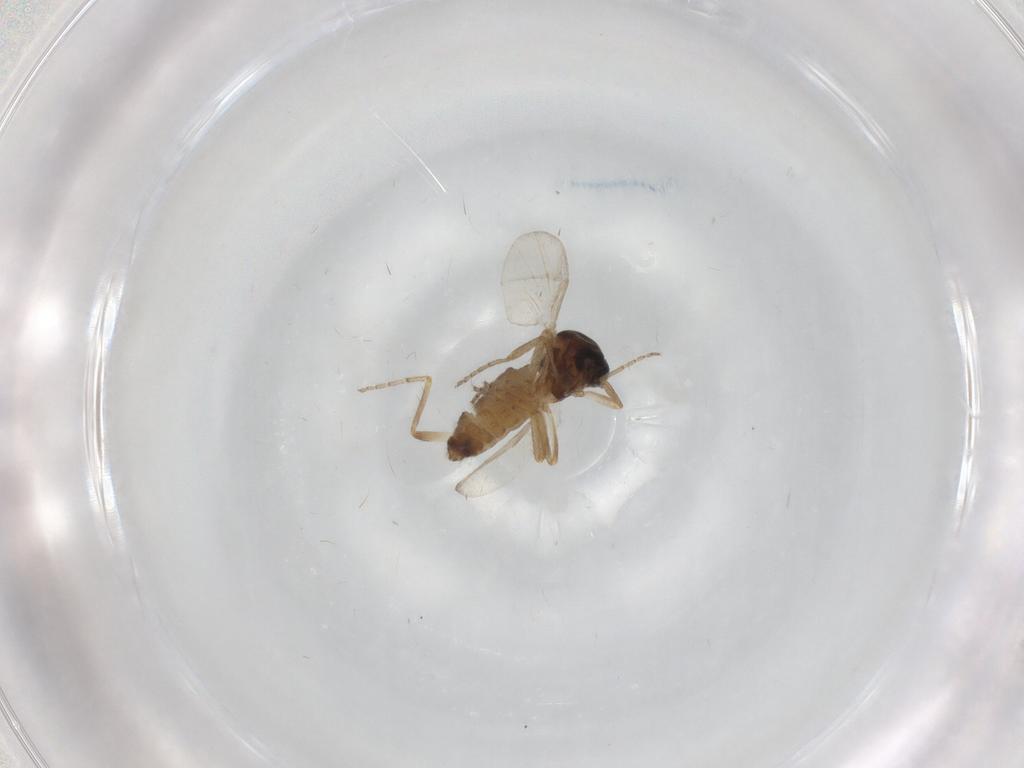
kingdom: Animalia
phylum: Arthropoda
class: Insecta
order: Diptera
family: Ceratopogonidae
